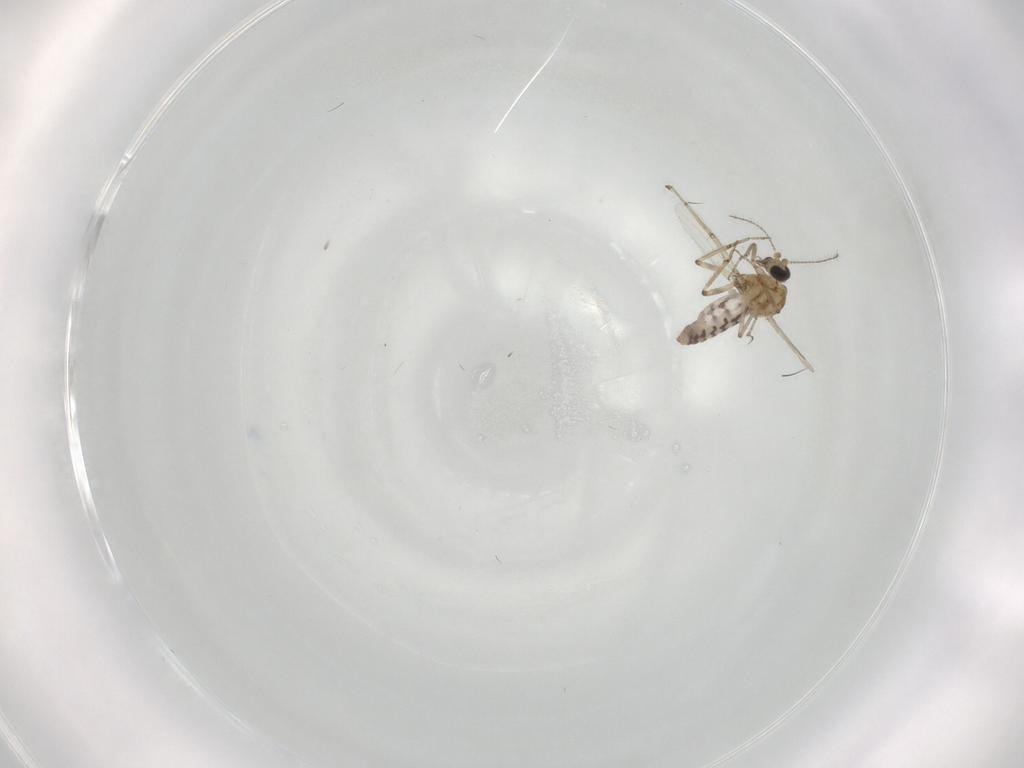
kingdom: Animalia
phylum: Arthropoda
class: Insecta
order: Diptera
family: Ceratopogonidae
